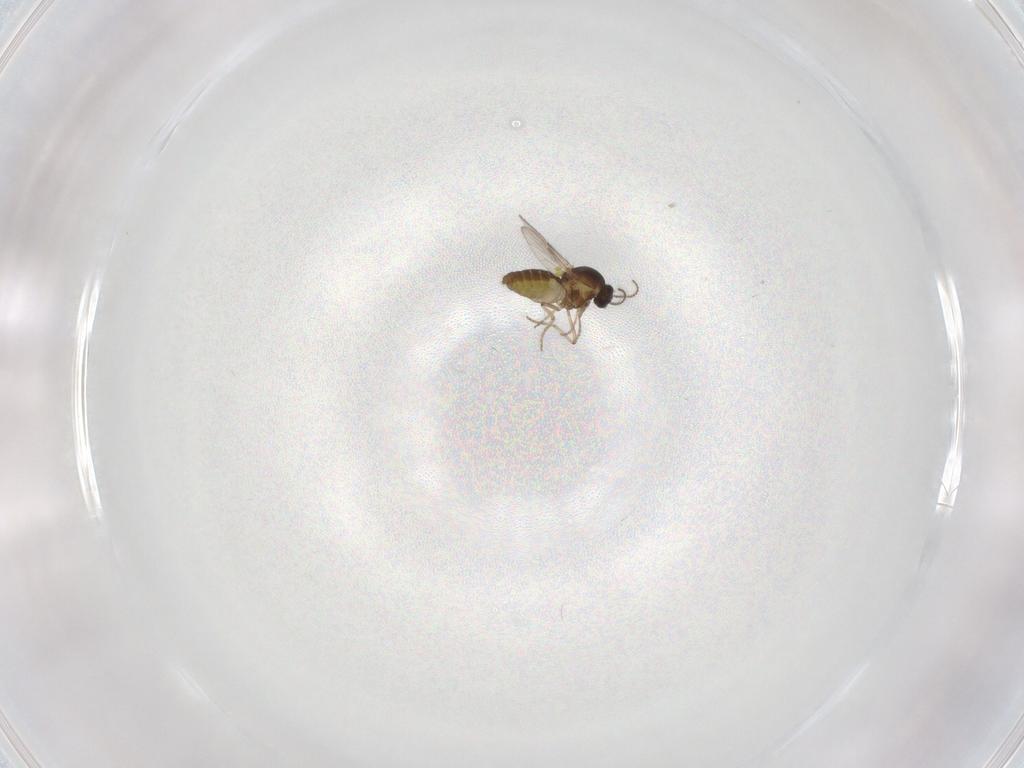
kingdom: Animalia
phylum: Arthropoda
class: Insecta
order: Diptera
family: Ceratopogonidae
